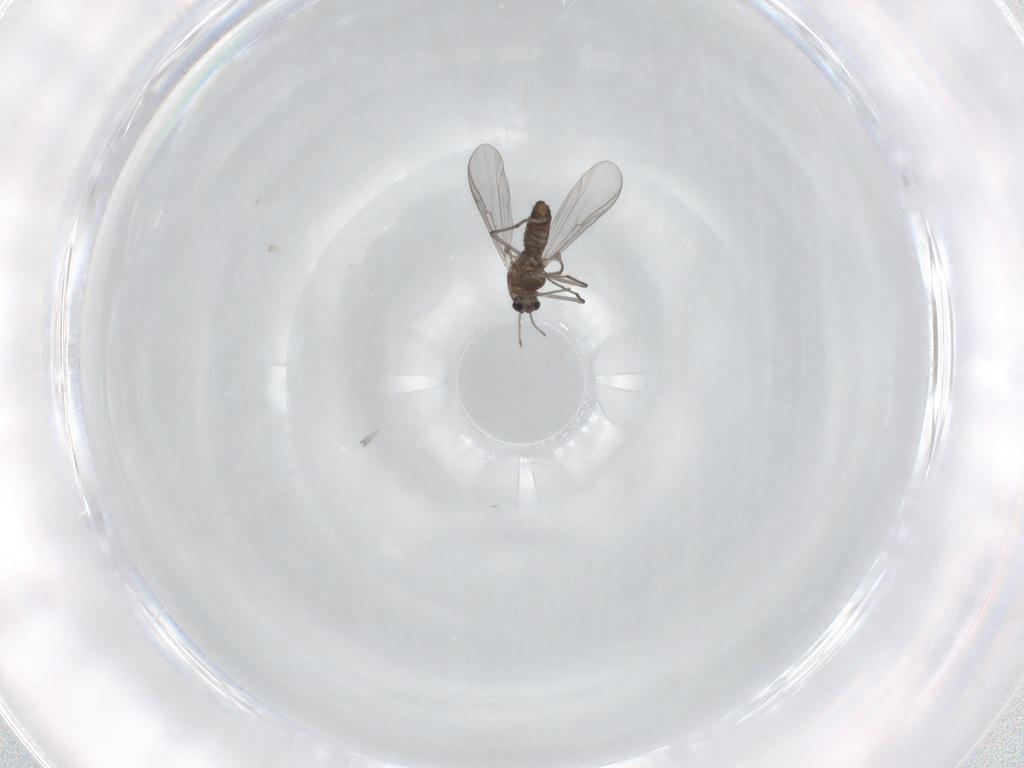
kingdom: Animalia
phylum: Arthropoda
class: Insecta
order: Diptera
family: Chironomidae
